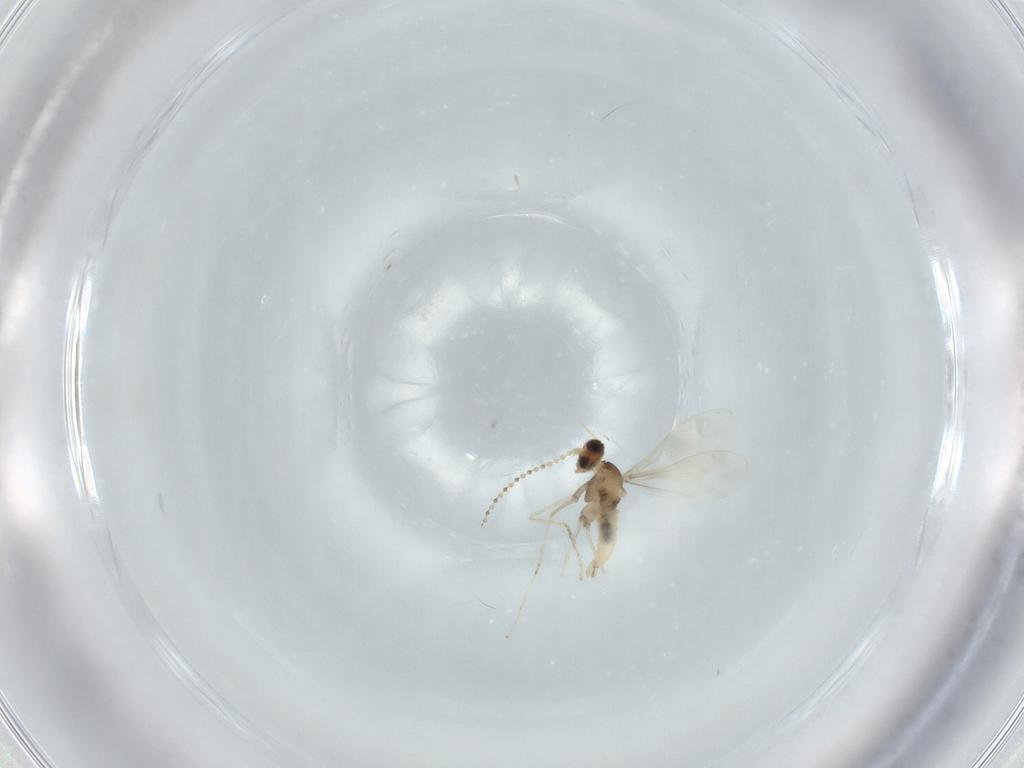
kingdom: Animalia
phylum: Arthropoda
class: Insecta
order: Diptera
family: Cecidomyiidae
